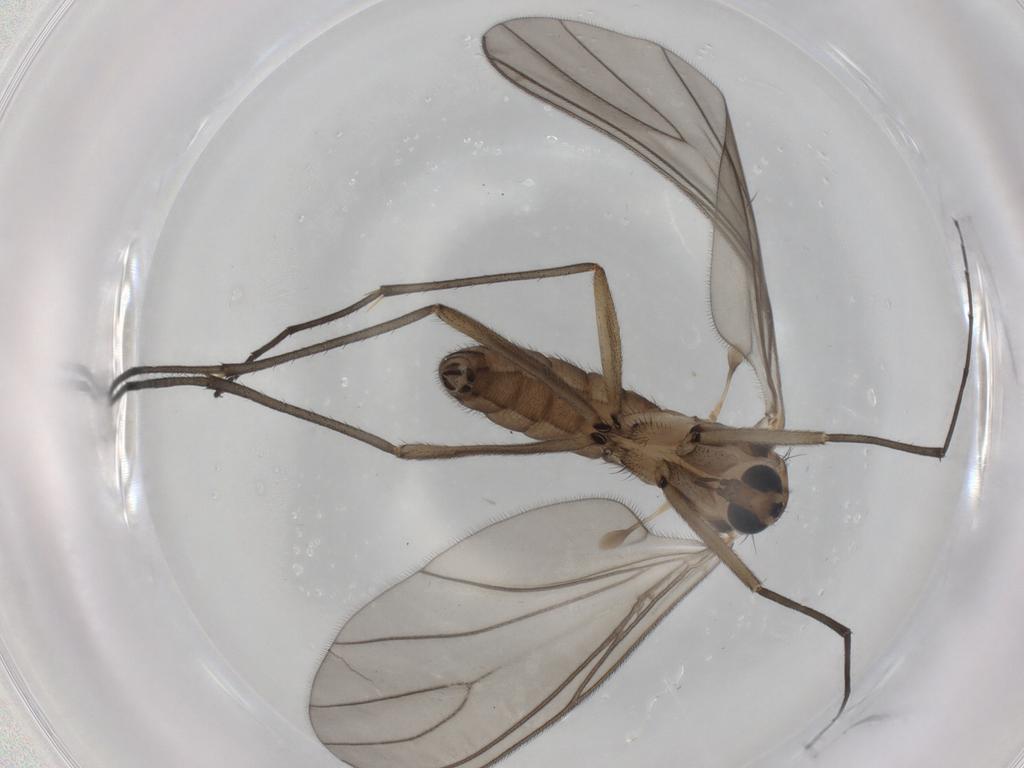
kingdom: Animalia
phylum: Arthropoda
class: Insecta
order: Diptera
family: Sciaridae
